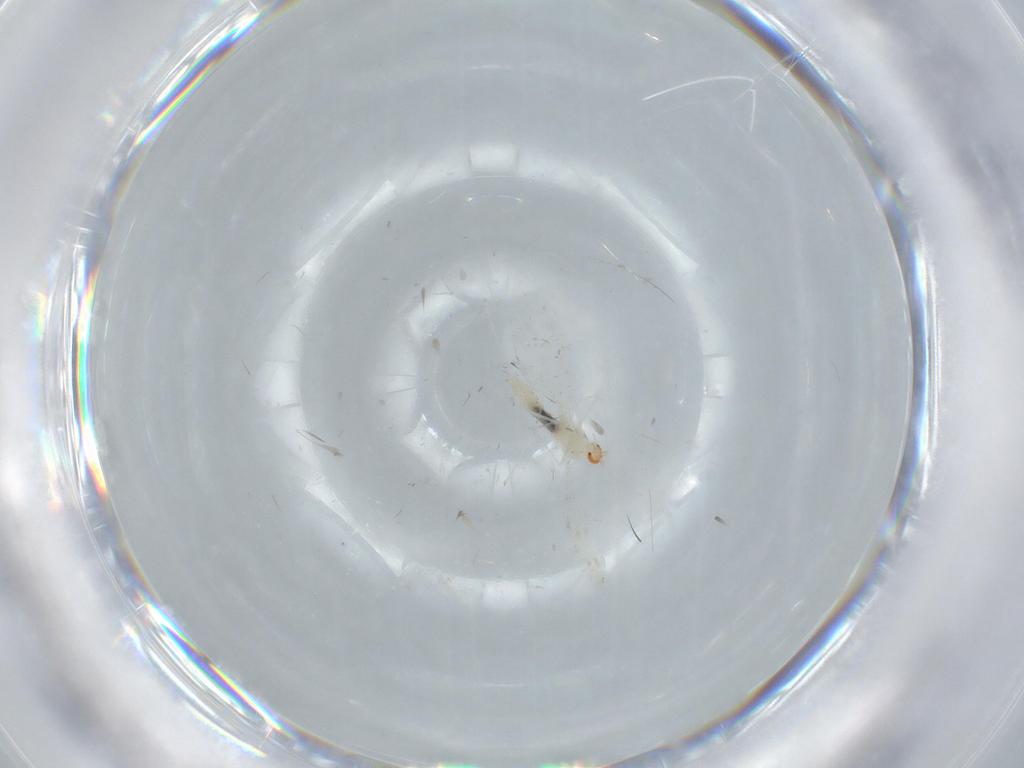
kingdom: Animalia
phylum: Arthropoda
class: Insecta
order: Diptera
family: Cecidomyiidae
